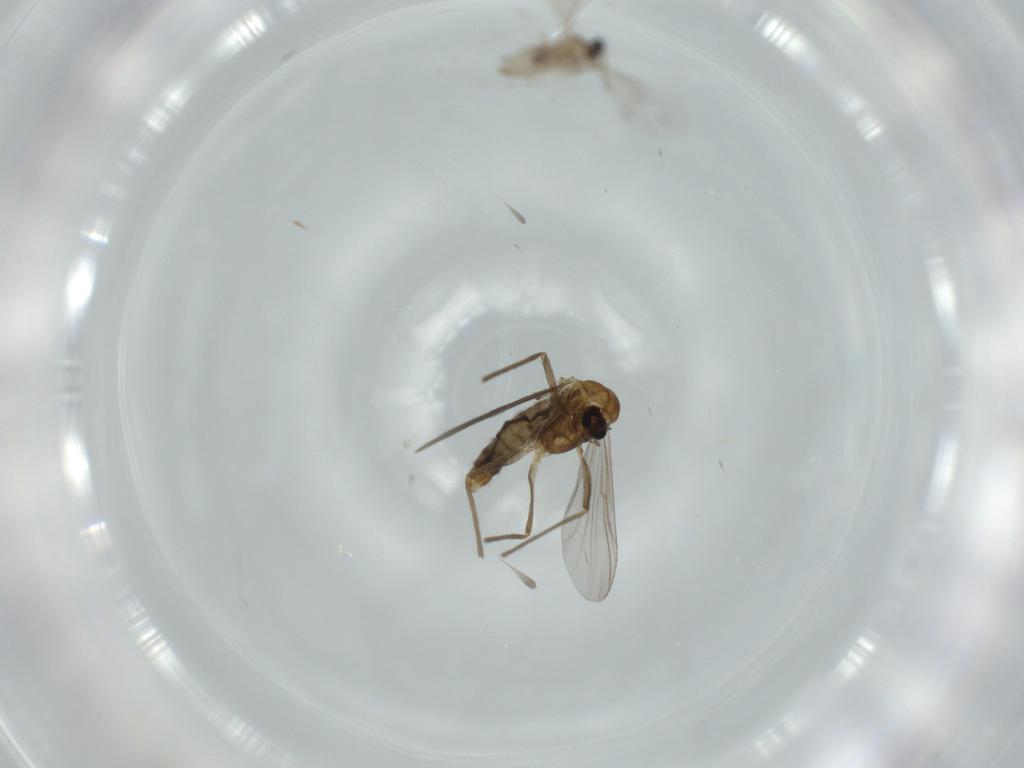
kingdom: Animalia
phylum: Arthropoda
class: Insecta
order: Diptera
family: Chironomidae
